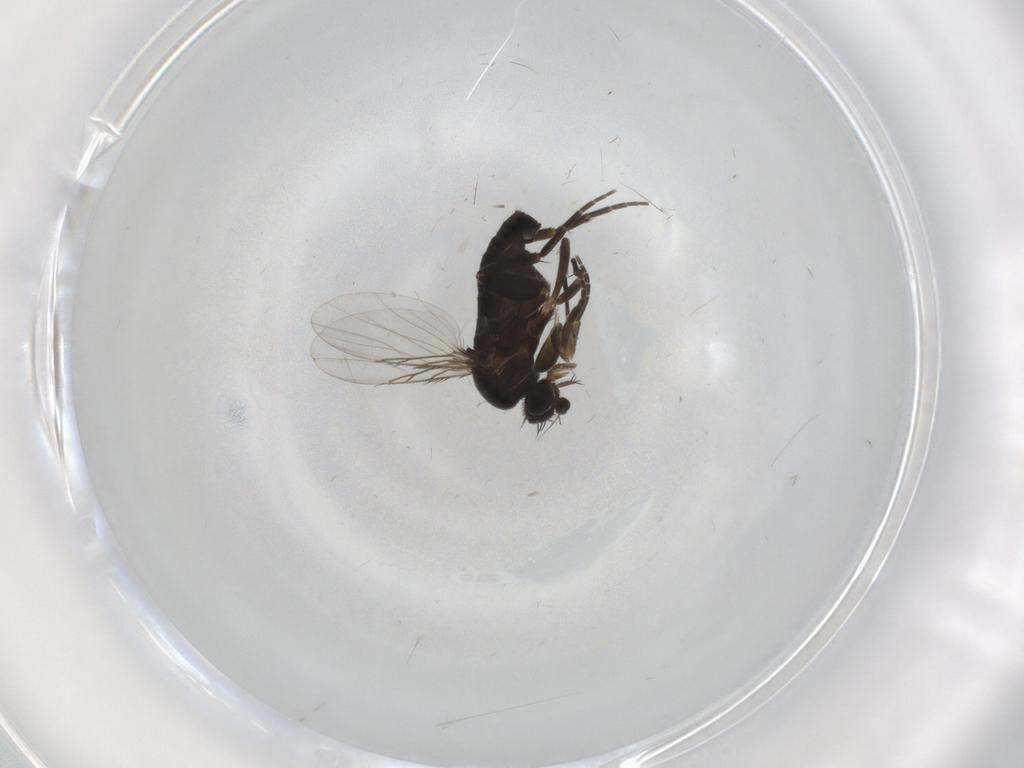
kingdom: Animalia
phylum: Arthropoda
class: Insecta
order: Diptera
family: Phoridae
